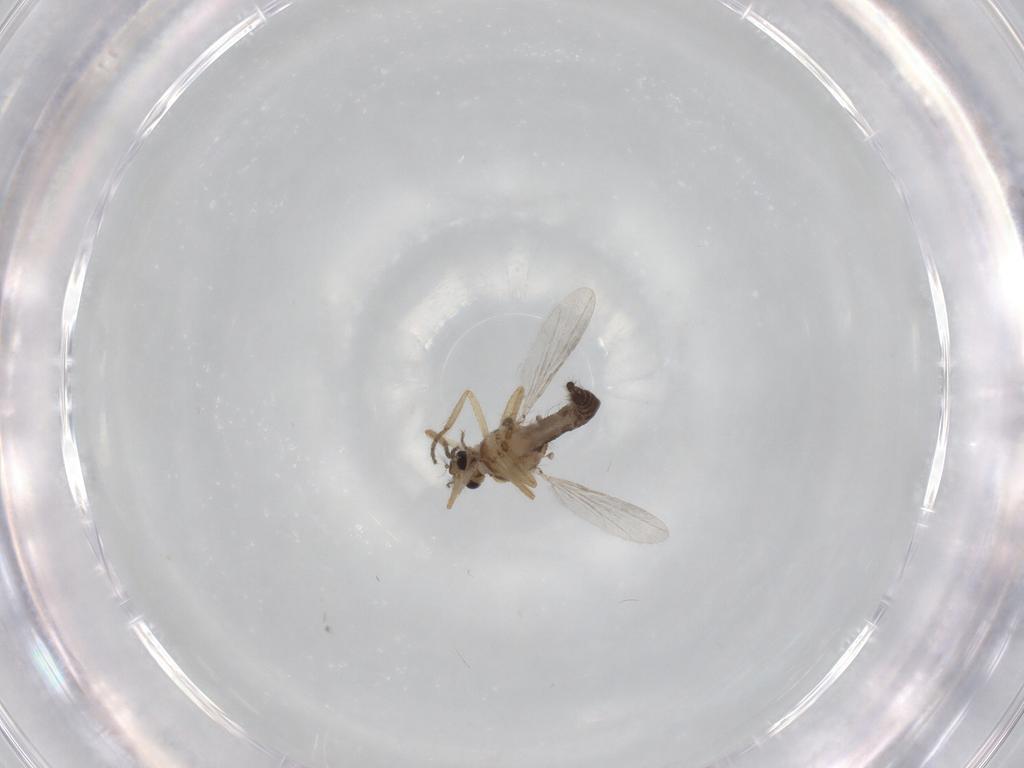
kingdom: Animalia
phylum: Arthropoda
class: Insecta
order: Diptera
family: Ceratopogonidae
